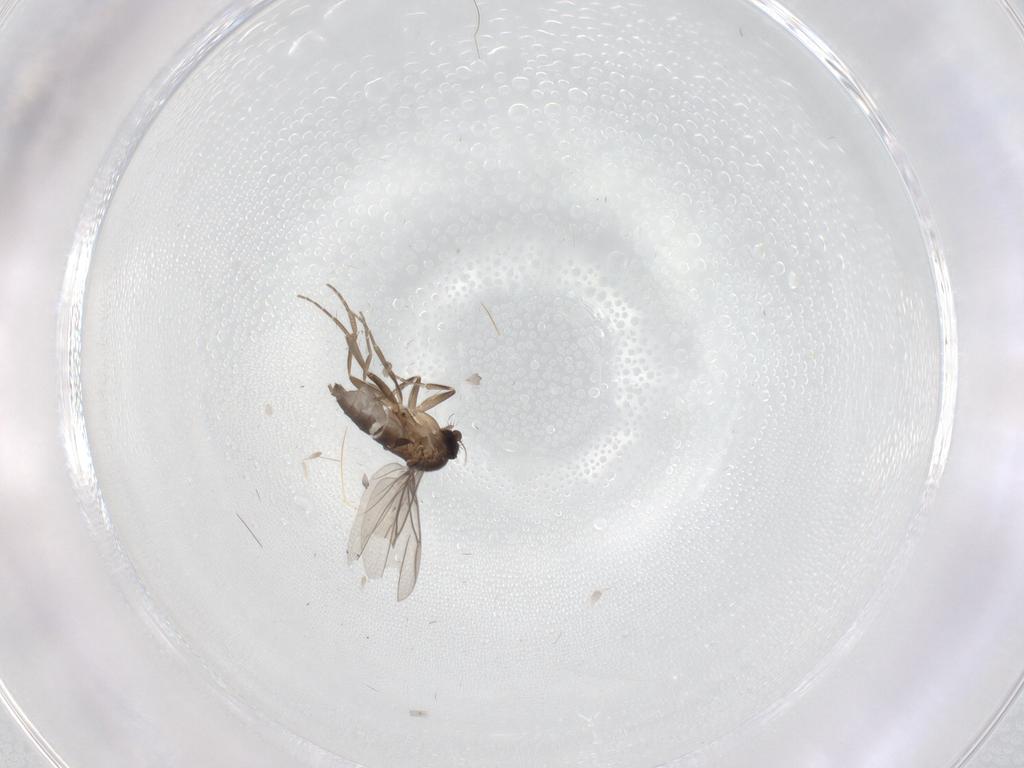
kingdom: Animalia
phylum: Arthropoda
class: Insecta
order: Diptera
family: Phoridae
